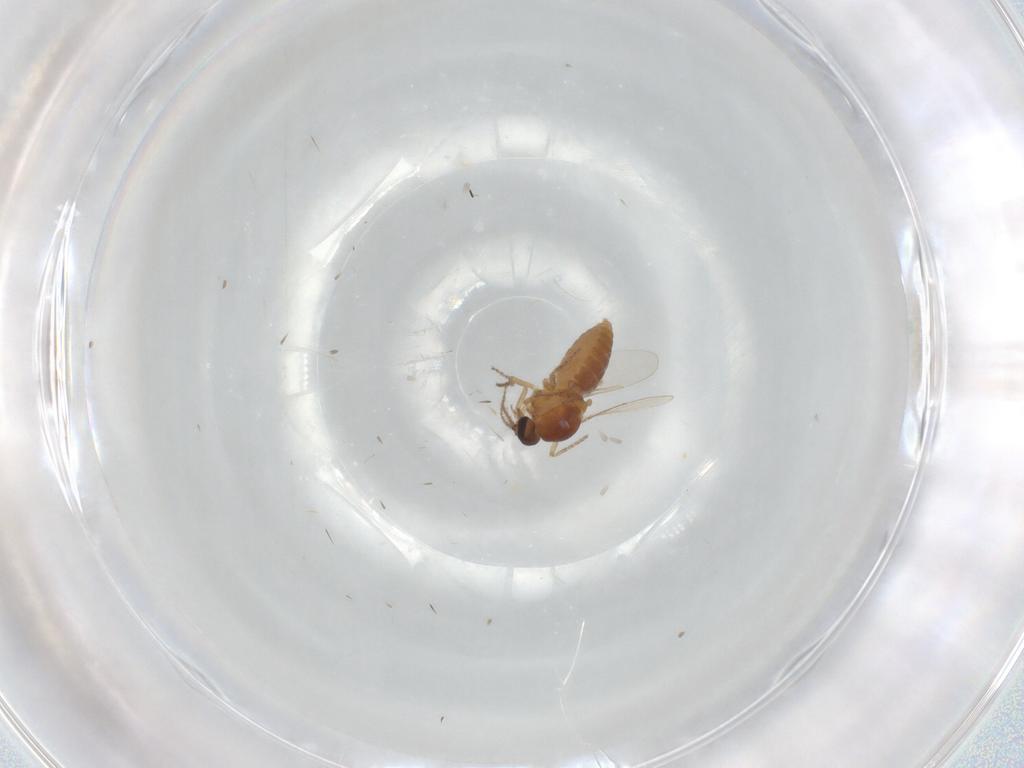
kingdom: Animalia
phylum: Arthropoda
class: Insecta
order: Diptera
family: Ceratopogonidae
